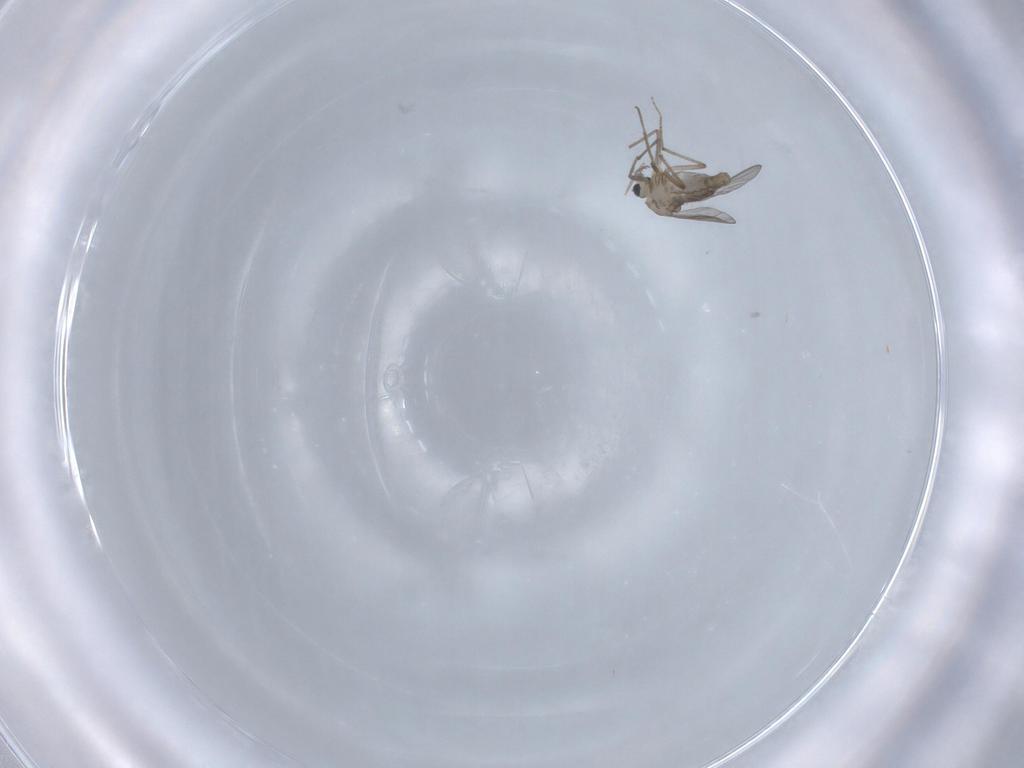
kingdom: Animalia
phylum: Arthropoda
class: Insecta
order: Diptera
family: Chironomidae
